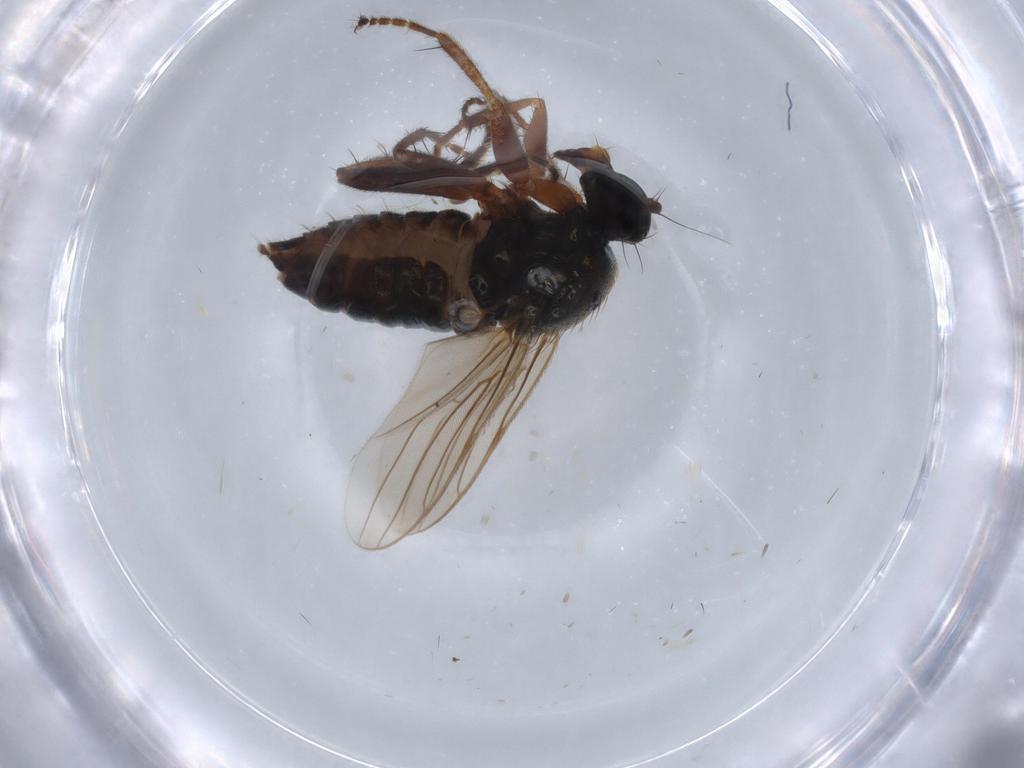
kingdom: Animalia
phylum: Arthropoda
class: Insecta
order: Diptera
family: Hybotidae
